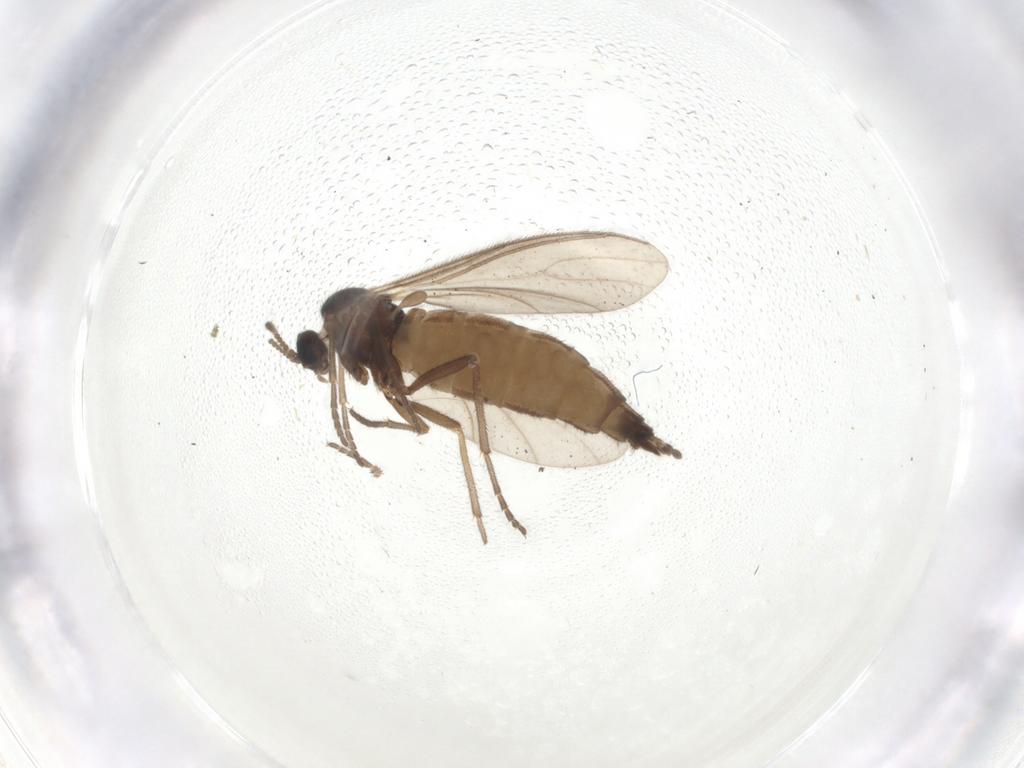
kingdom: Animalia
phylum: Arthropoda
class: Insecta
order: Diptera
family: Sciaridae
